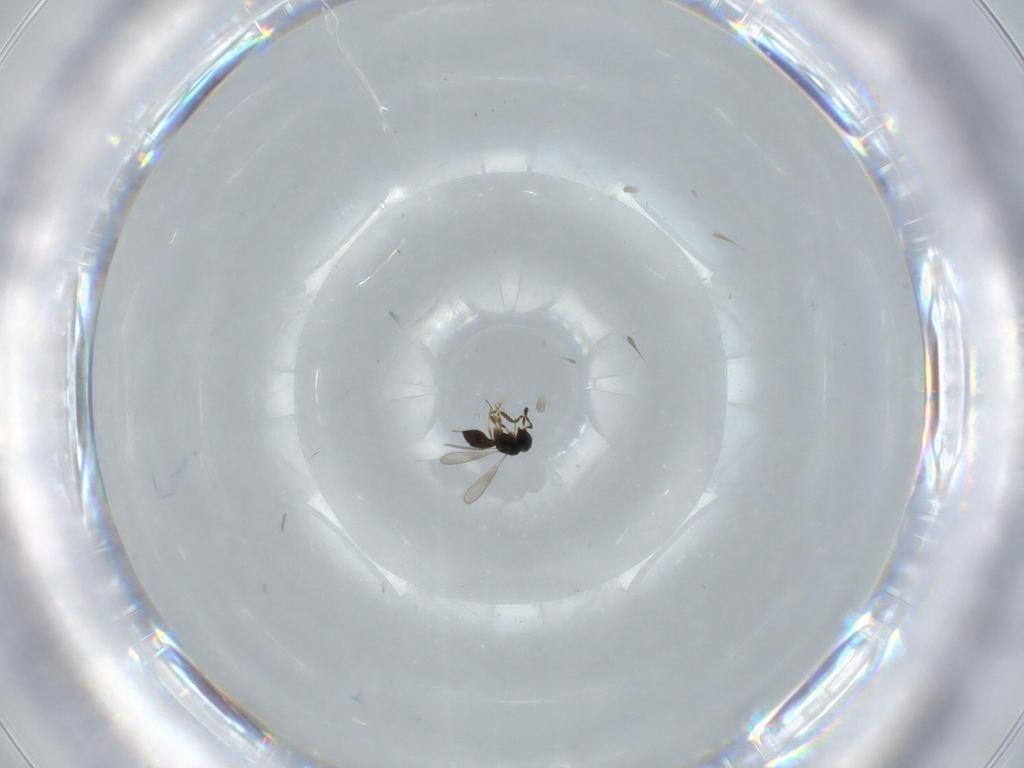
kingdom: Animalia
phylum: Arthropoda
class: Insecta
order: Hymenoptera
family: Scelionidae
